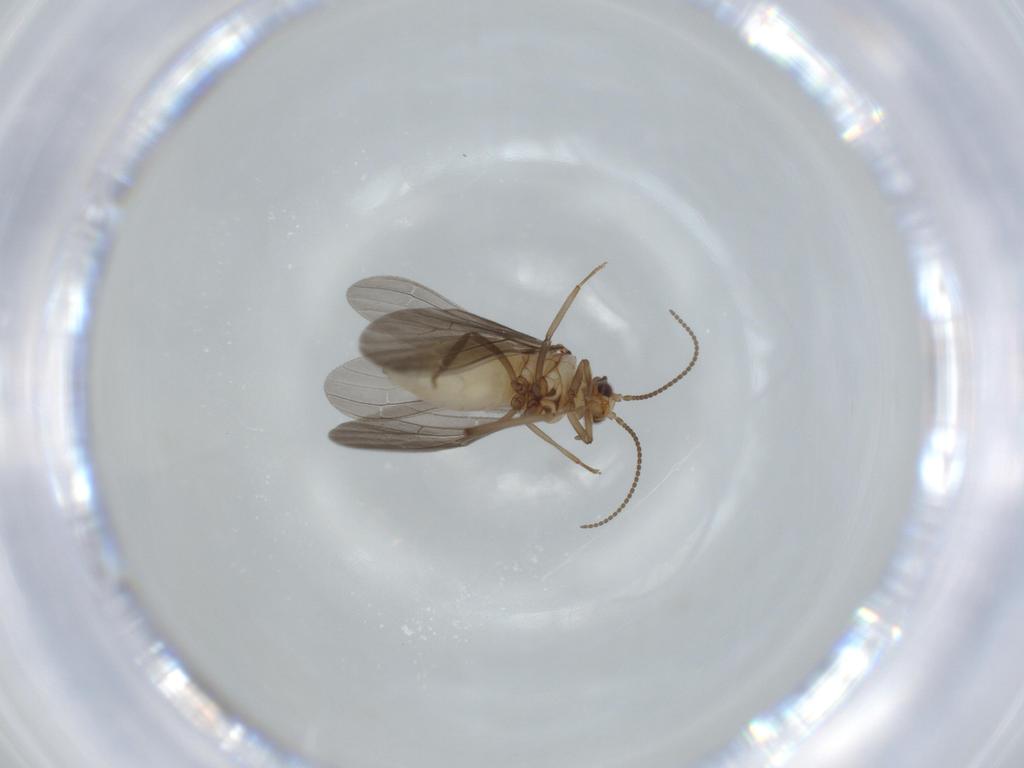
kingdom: Animalia
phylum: Arthropoda
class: Insecta
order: Neuroptera
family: Coniopterygidae
